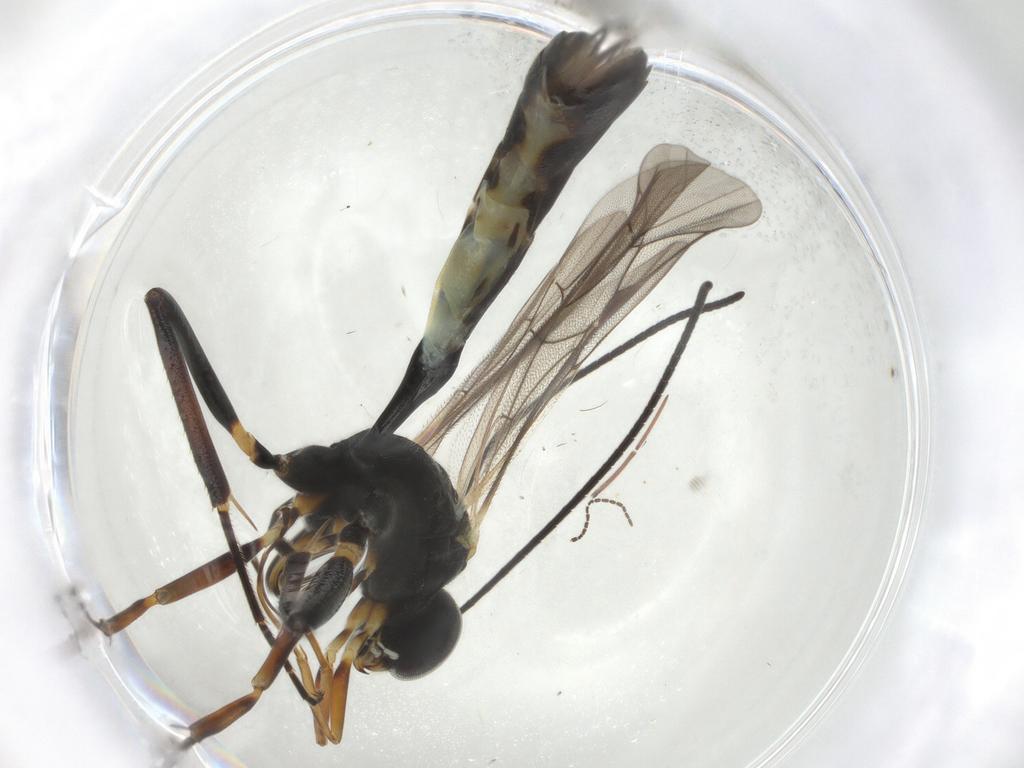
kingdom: Animalia
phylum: Arthropoda
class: Insecta
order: Hymenoptera
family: Ichneumonidae
